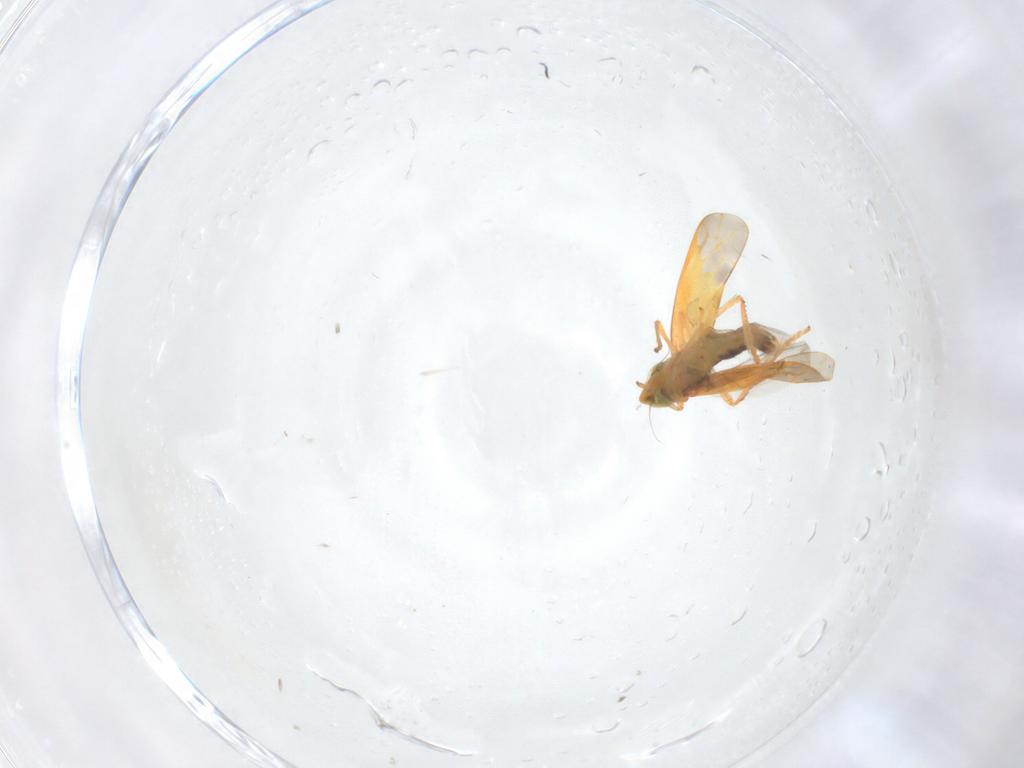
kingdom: Animalia
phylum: Arthropoda
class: Insecta
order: Hemiptera
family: Cicadellidae
